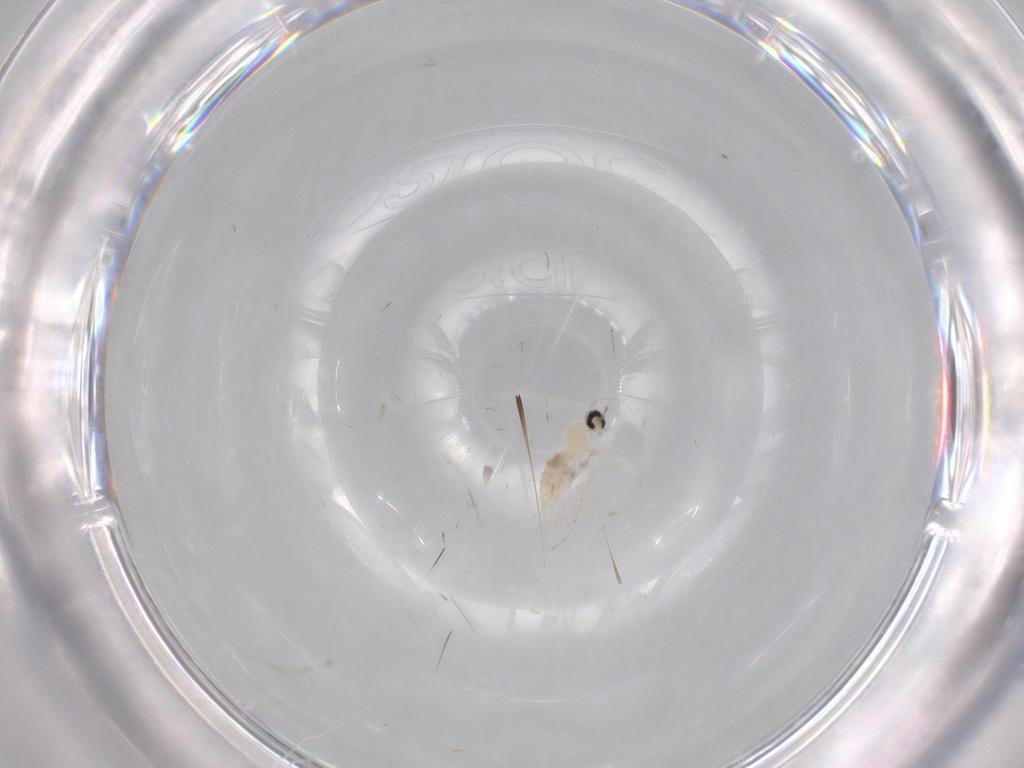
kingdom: Animalia
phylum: Arthropoda
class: Insecta
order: Diptera
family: Cecidomyiidae
